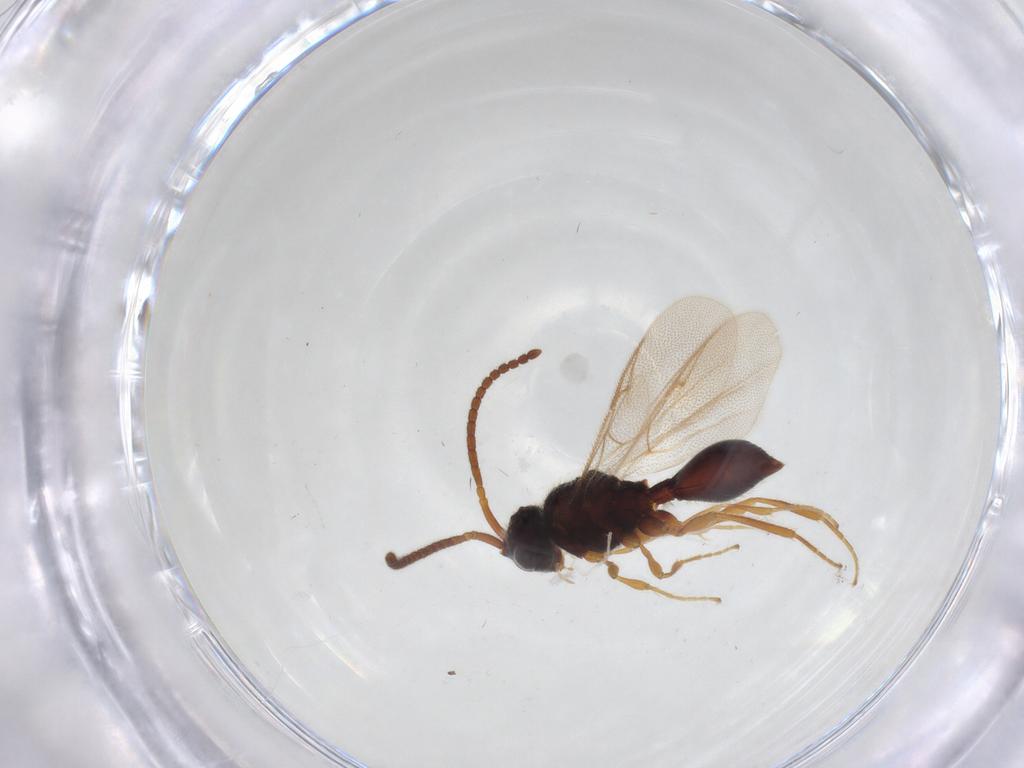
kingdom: Animalia
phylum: Arthropoda
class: Insecta
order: Hymenoptera
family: Diapriidae
